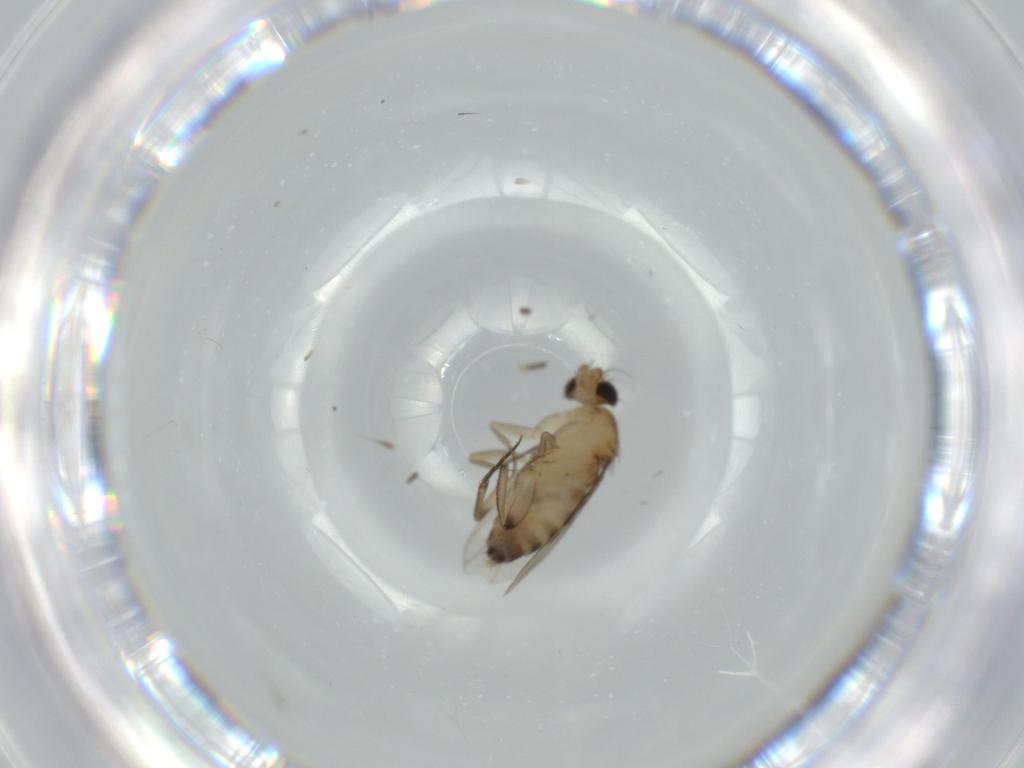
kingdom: Animalia
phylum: Arthropoda
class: Insecta
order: Diptera
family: Phoridae
